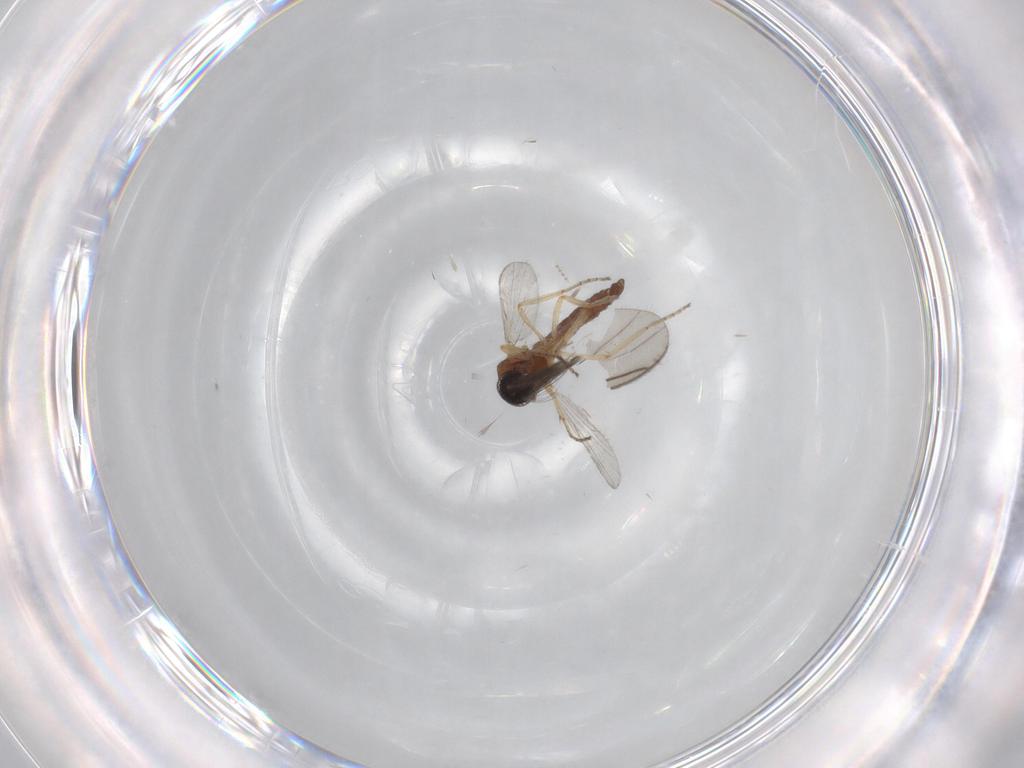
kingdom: Animalia
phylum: Arthropoda
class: Insecta
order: Diptera
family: Ceratopogonidae
